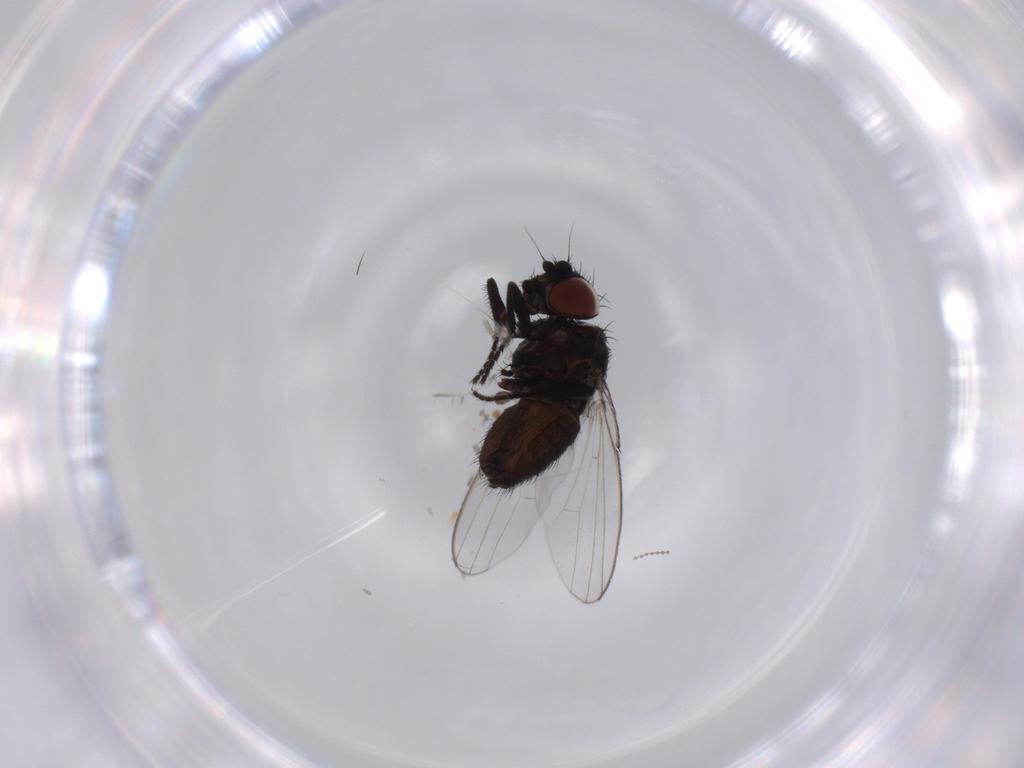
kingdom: Animalia
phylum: Arthropoda
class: Insecta
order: Diptera
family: Milichiidae
